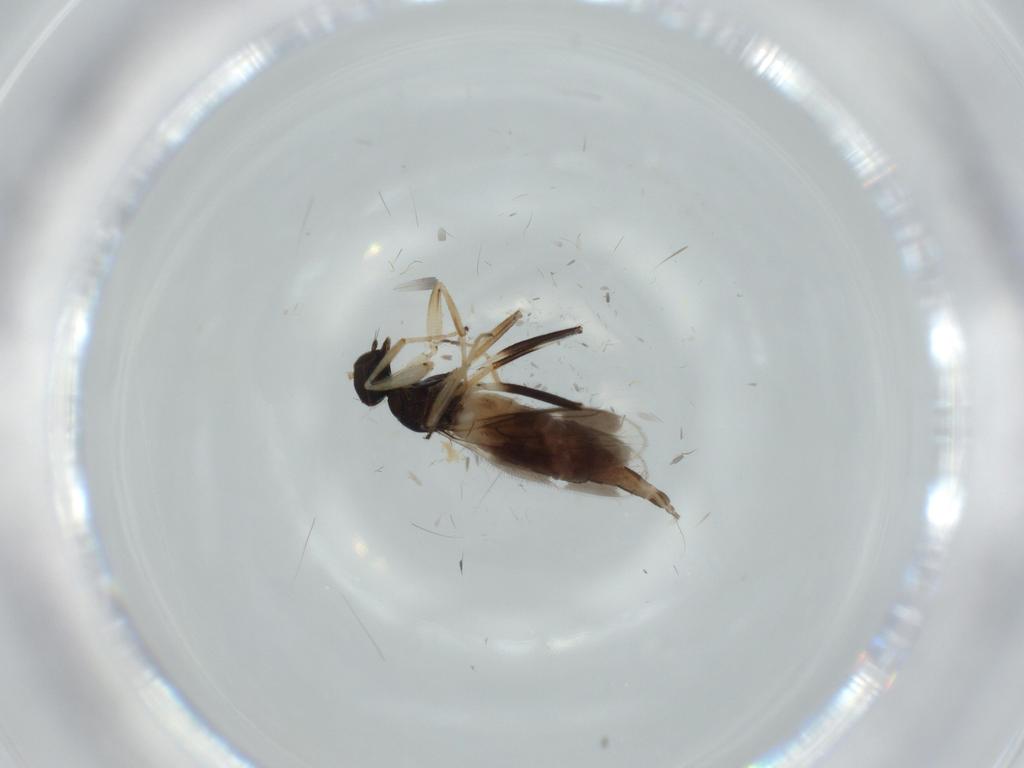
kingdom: Animalia
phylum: Arthropoda
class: Insecta
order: Diptera
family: Hybotidae
